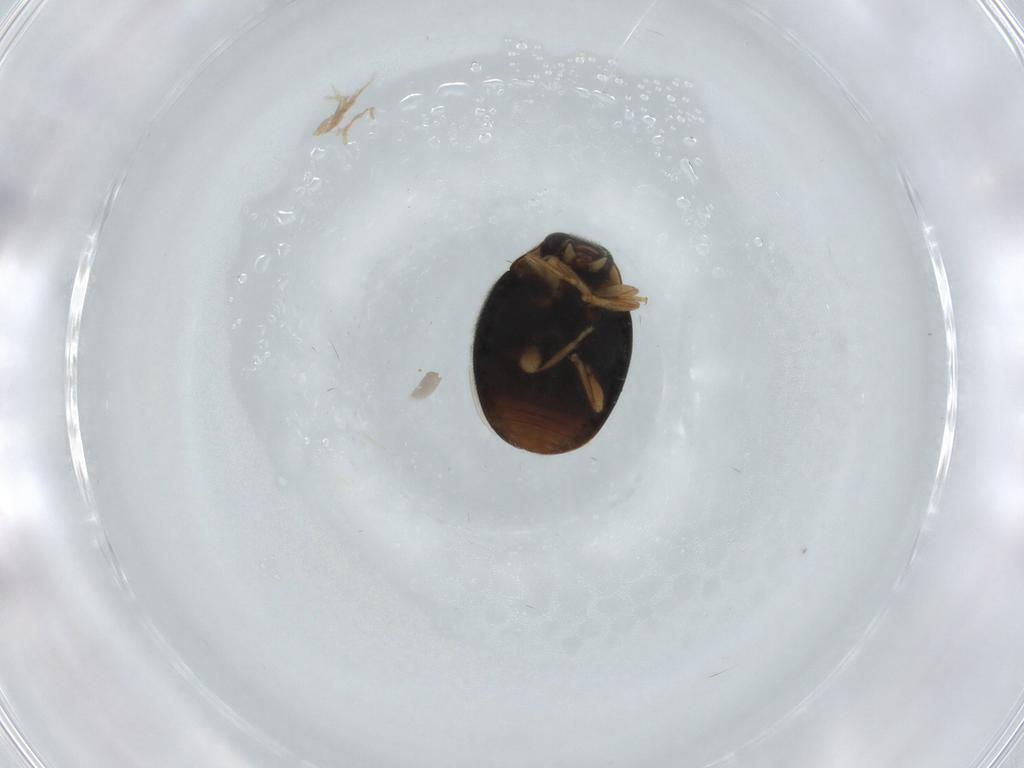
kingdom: Animalia
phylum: Arthropoda
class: Insecta
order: Coleoptera
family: Coccinellidae
